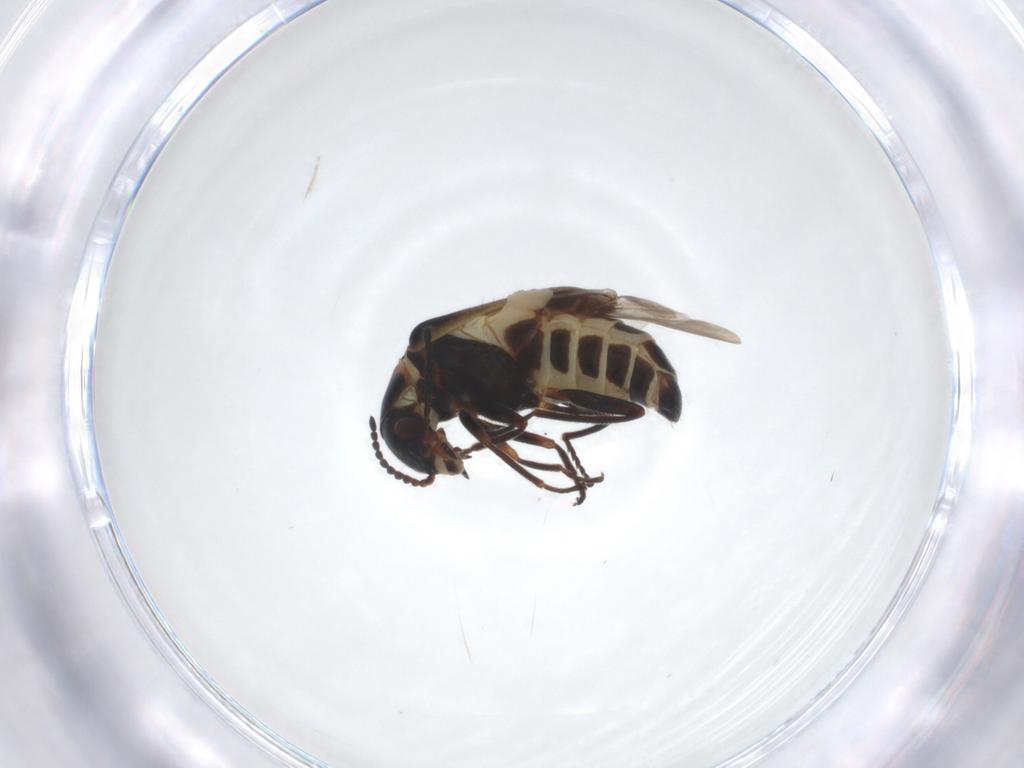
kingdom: Animalia
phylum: Arthropoda
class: Insecta
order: Coleoptera
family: Melyridae
